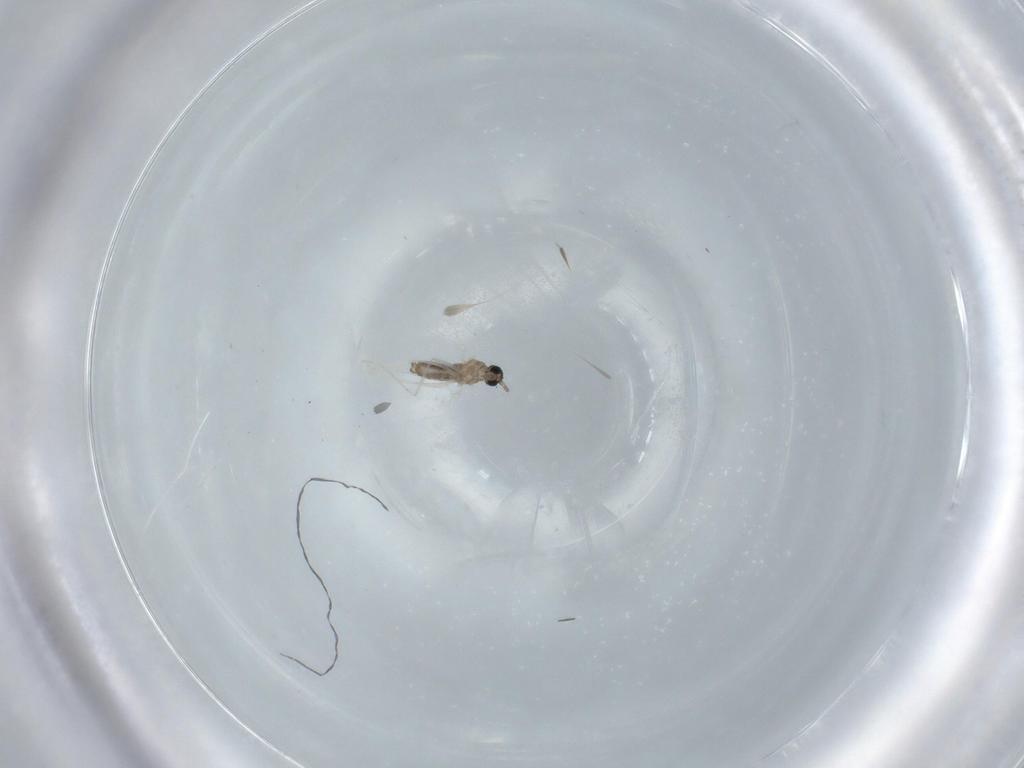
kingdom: Animalia
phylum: Arthropoda
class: Insecta
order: Diptera
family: Cecidomyiidae
